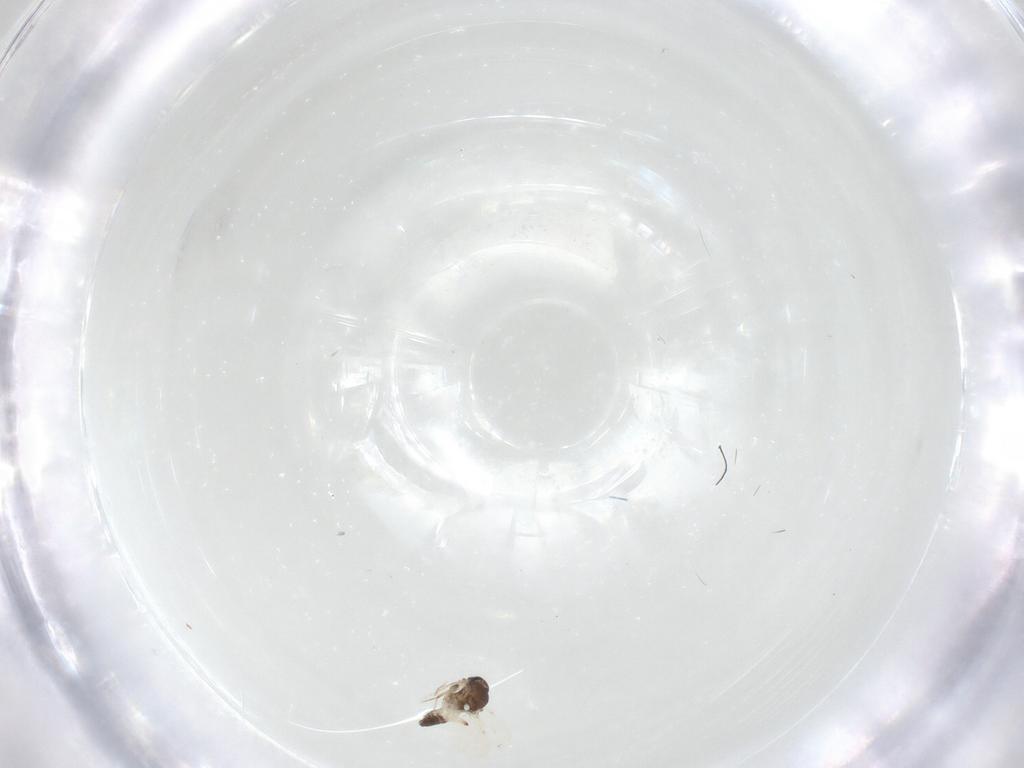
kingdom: Animalia
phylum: Arthropoda
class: Insecta
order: Diptera
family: Ceratopogonidae
